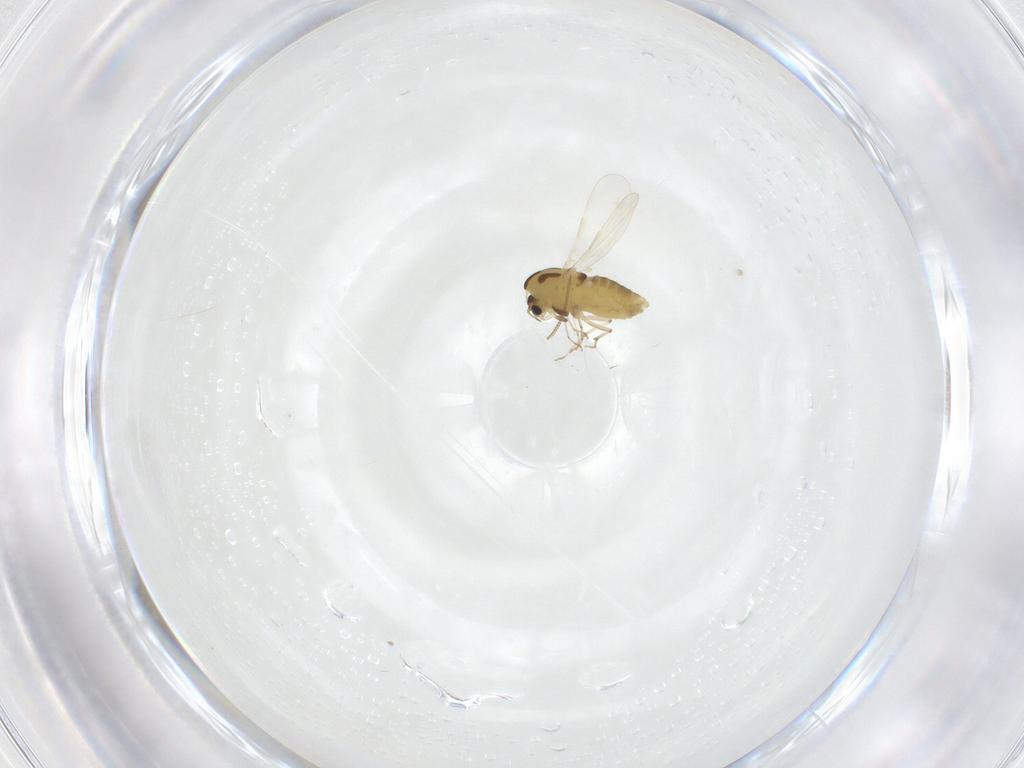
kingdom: Animalia
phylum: Arthropoda
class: Insecta
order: Diptera
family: Chironomidae
